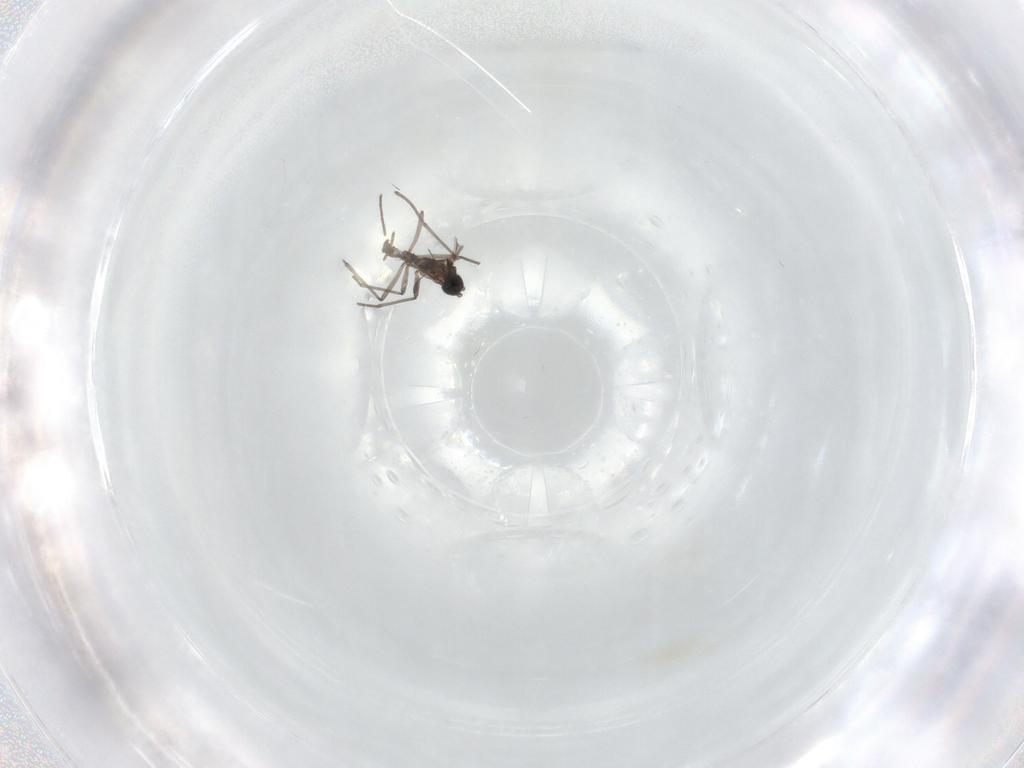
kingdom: Animalia
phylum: Arthropoda
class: Insecta
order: Diptera
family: Sciaridae
